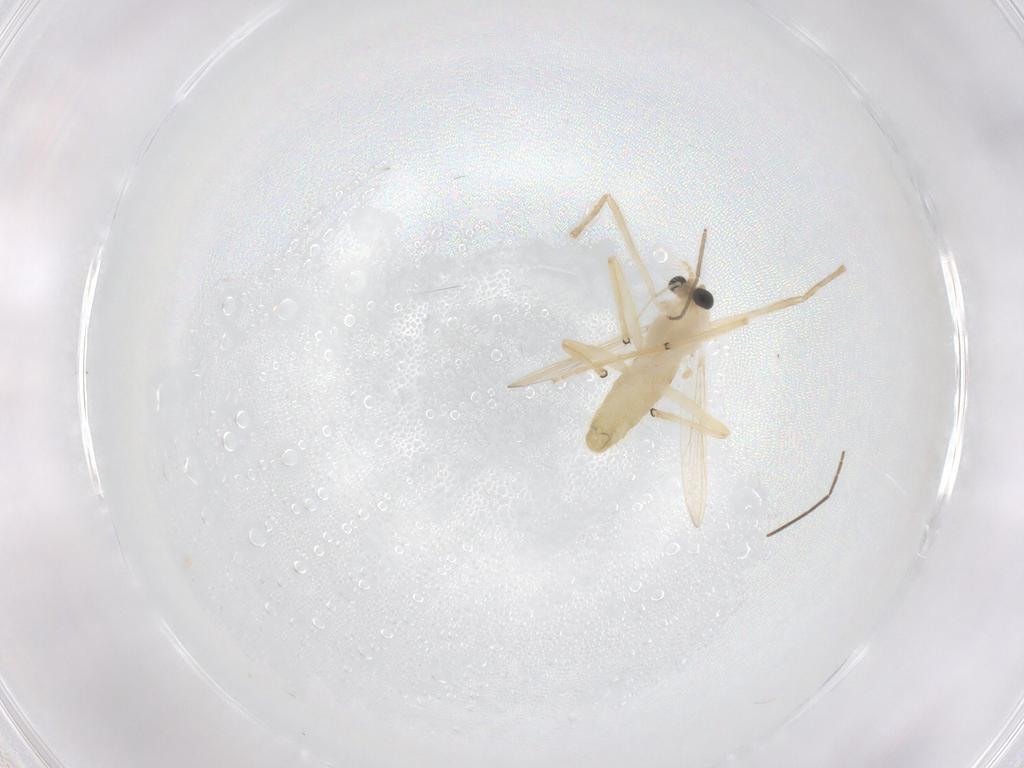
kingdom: Animalia
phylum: Arthropoda
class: Insecta
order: Diptera
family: Chironomidae
